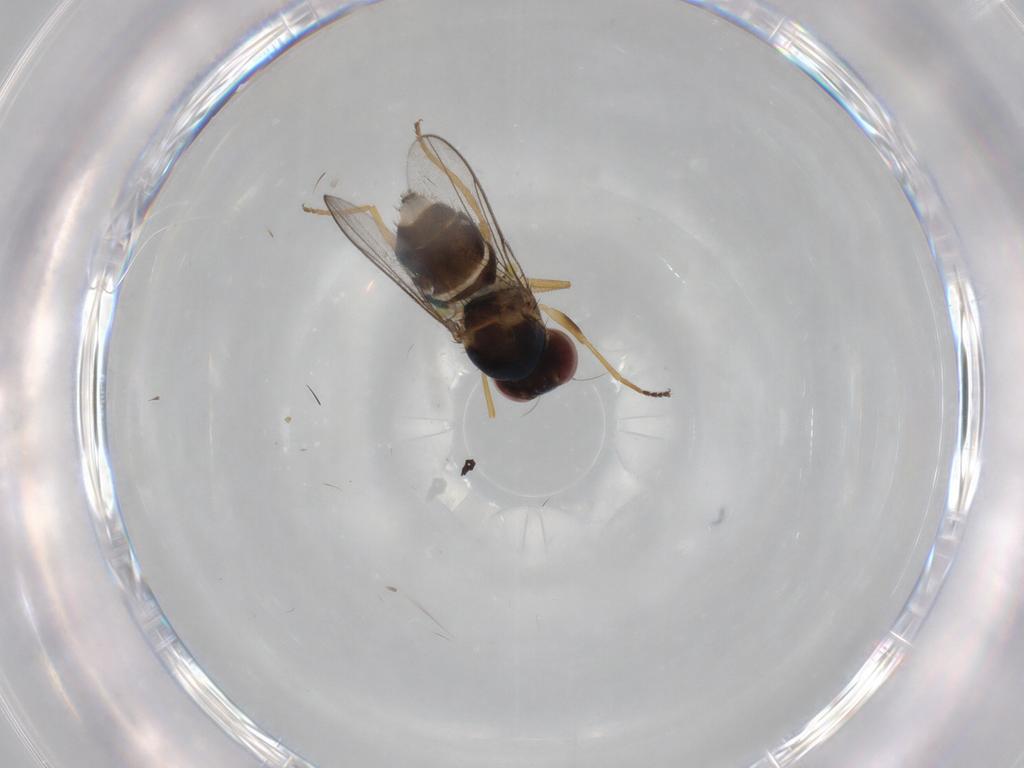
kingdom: Animalia
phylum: Arthropoda
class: Insecta
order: Diptera
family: Chloropidae
